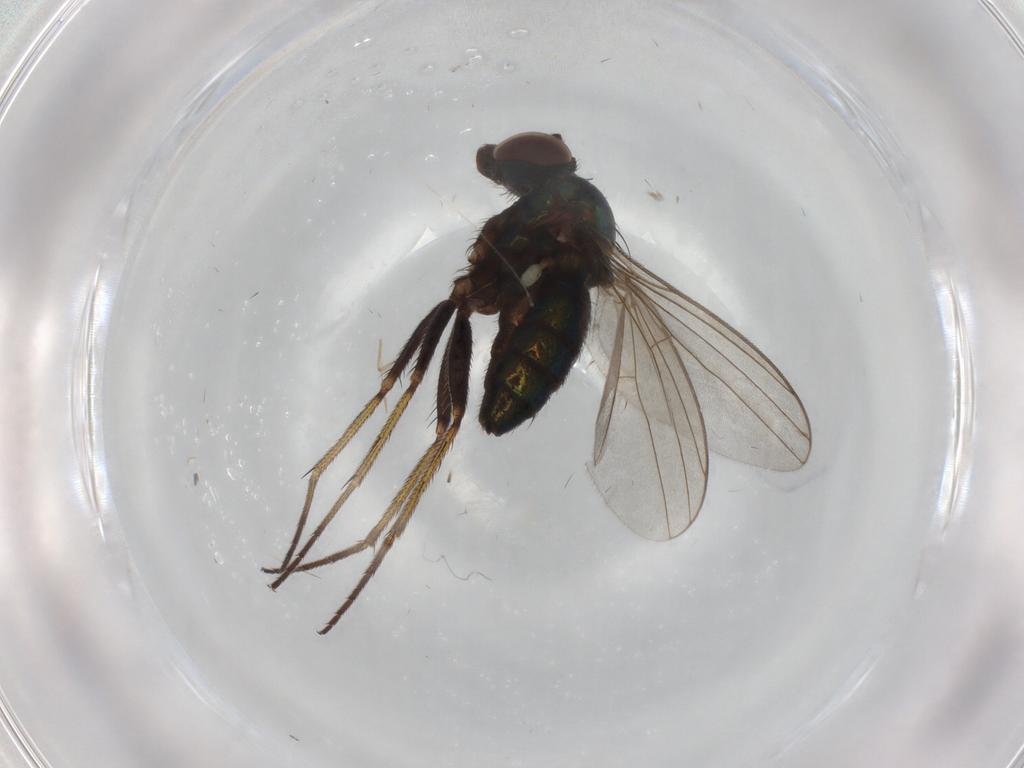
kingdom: Animalia
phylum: Arthropoda
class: Insecta
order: Diptera
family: Dolichopodidae
